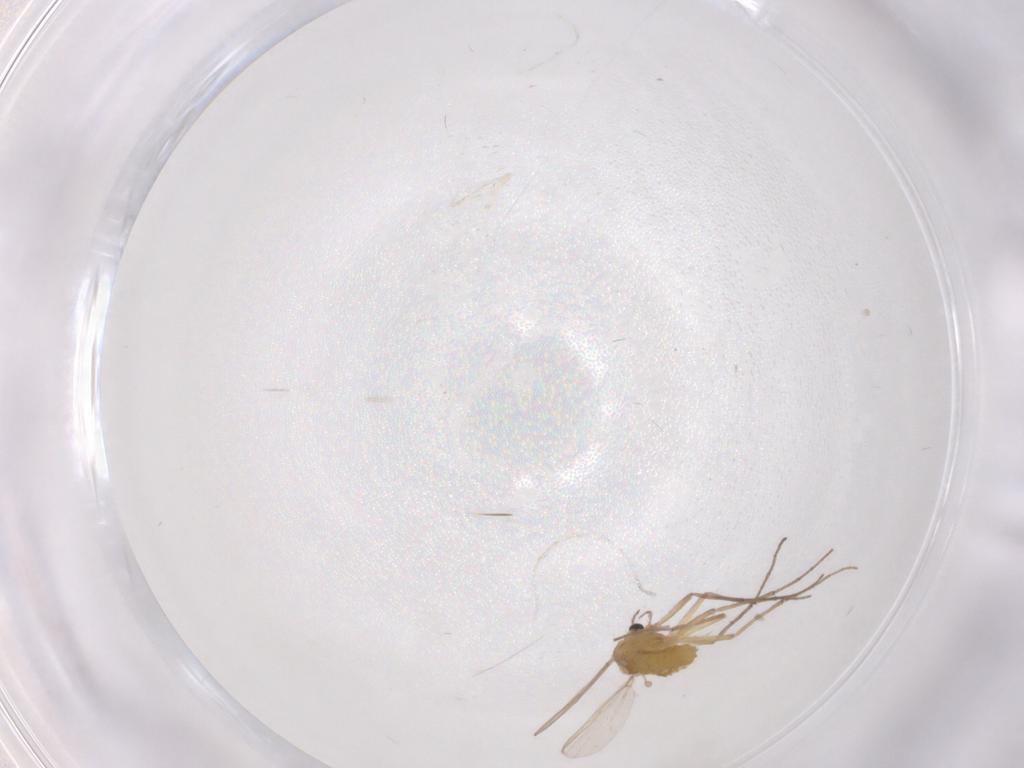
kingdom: Animalia
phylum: Arthropoda
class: Insecta
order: Diptera
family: Chironomidae
